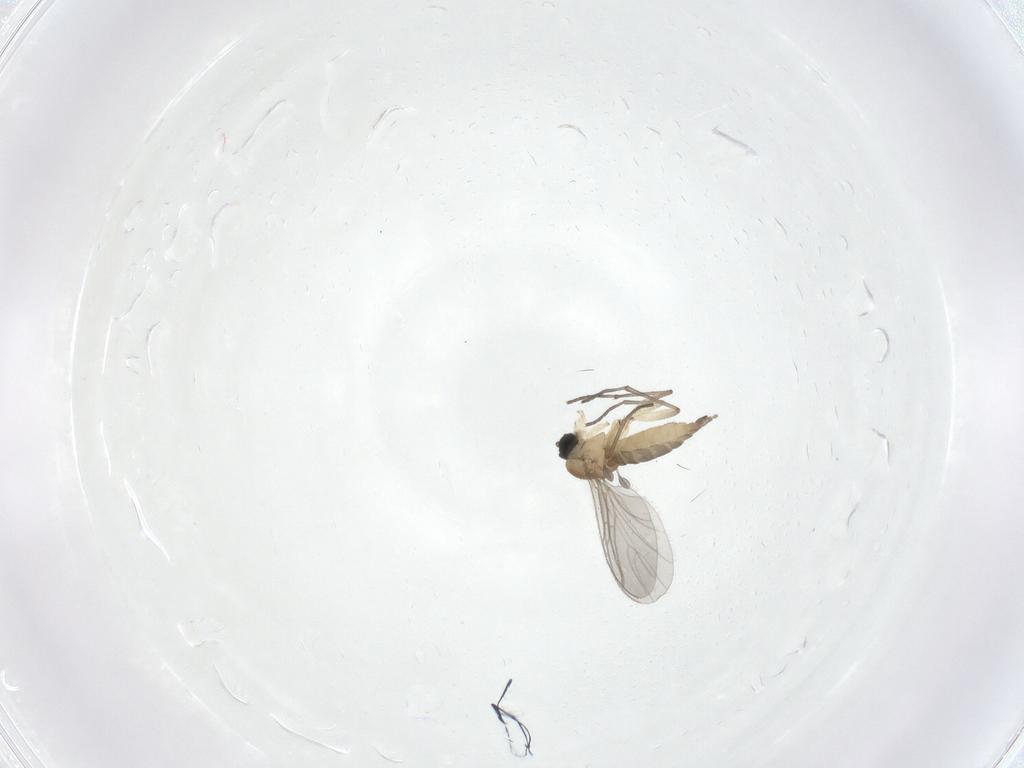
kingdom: Animalia
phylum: Arthropoda
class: Insecta
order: Diptera
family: Sciaridae
